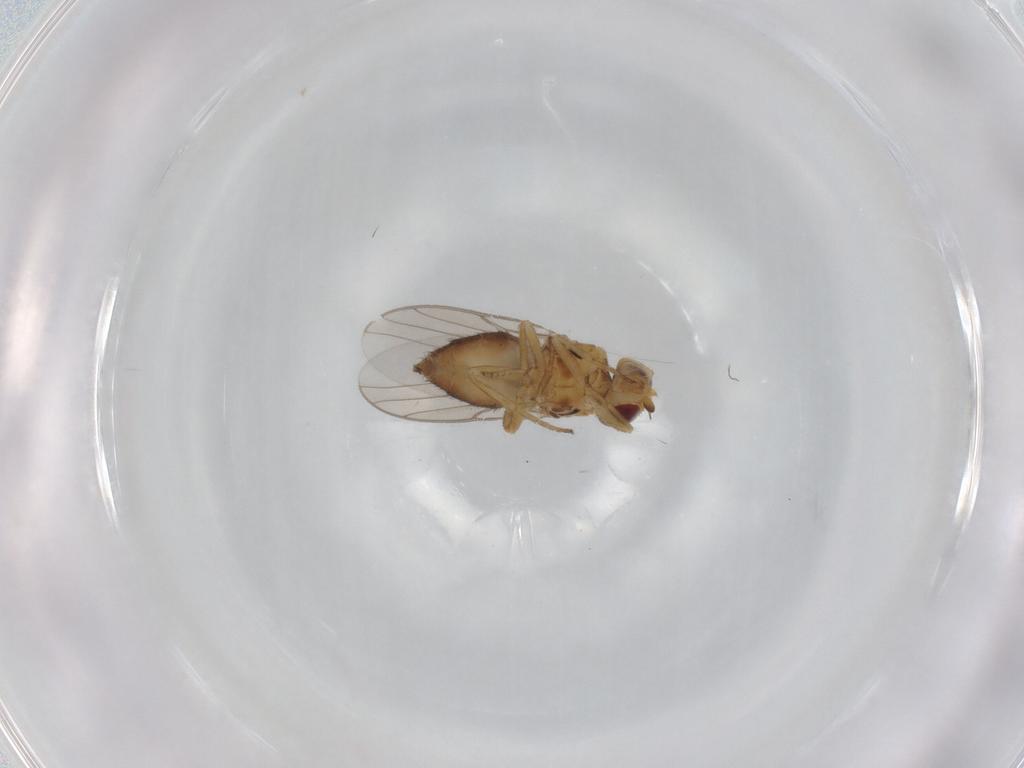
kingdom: Animalia
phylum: Arthropoda
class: Insecta
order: Diptera
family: Chloropidae
